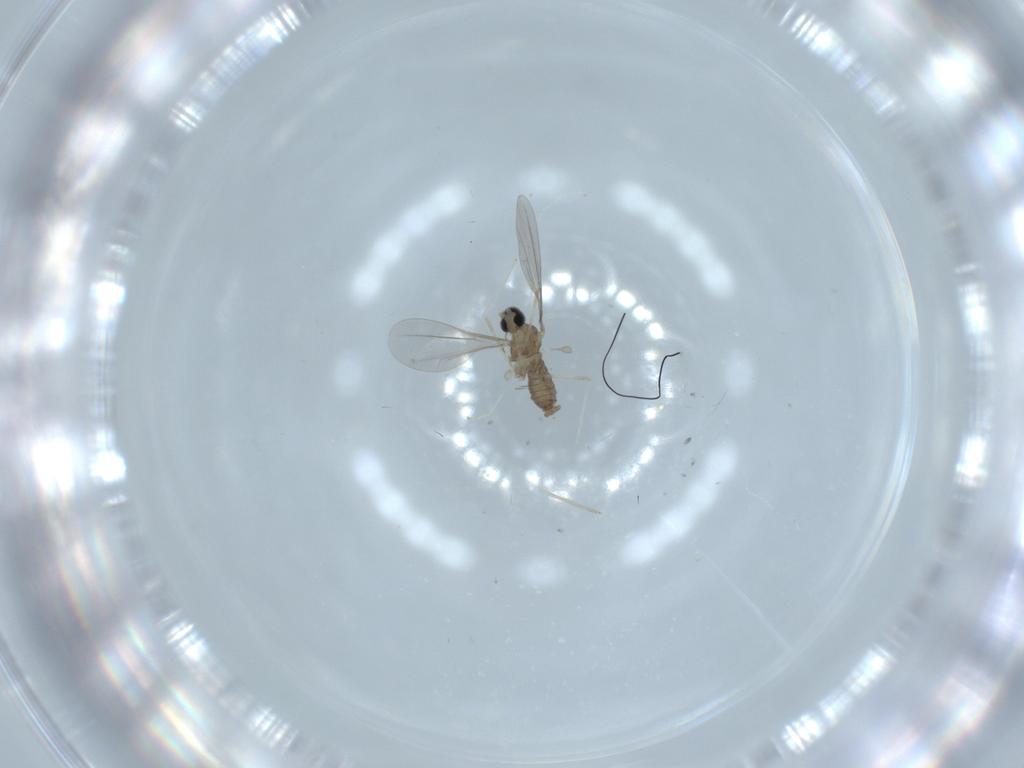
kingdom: Animalia
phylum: Arthropoda
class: Insecta
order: Diptera
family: Cecidomyiidae
